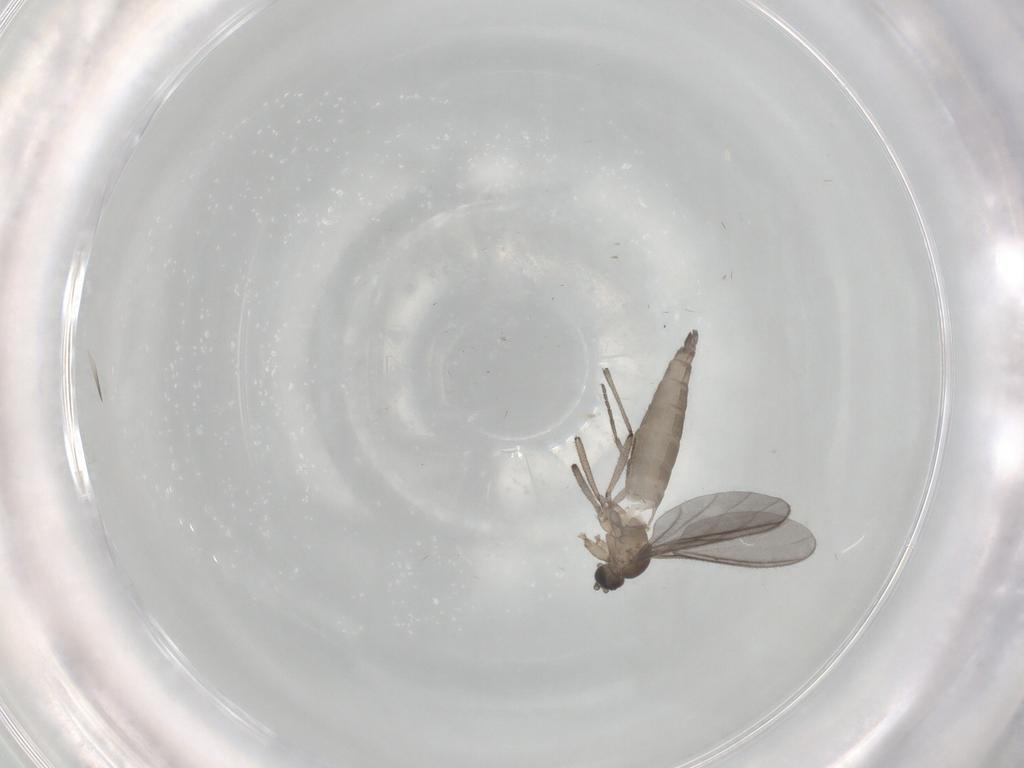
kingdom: Animalia
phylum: Arthropoda
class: Insecta
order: Diptera
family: Sciaridae
